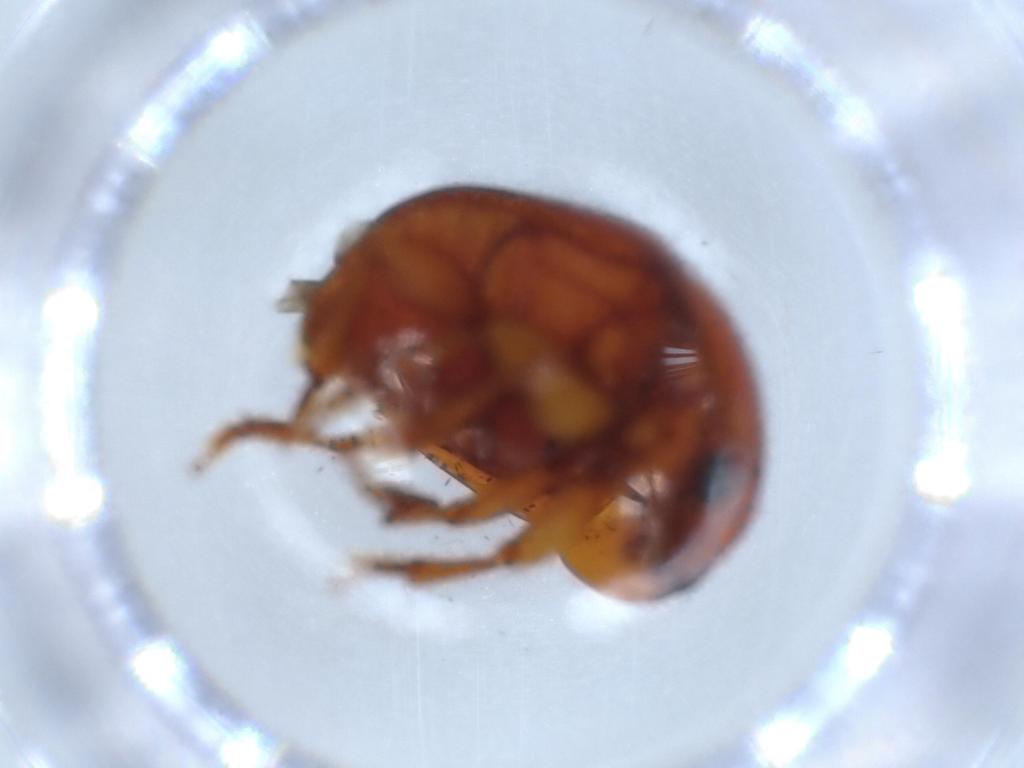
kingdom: Animalia
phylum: Arthropoda
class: Insecta
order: Coleoptera
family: Nitidulidae
